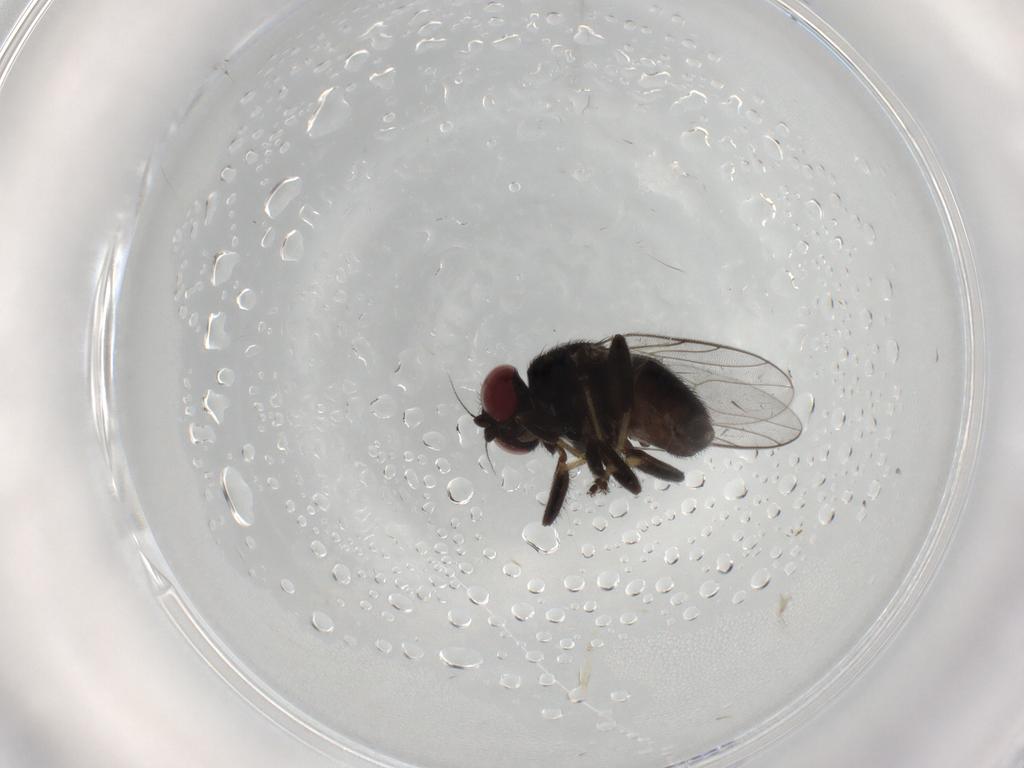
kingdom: Animalia
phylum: Arthropoda
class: Insecta
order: Diptera
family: Chloropidae
